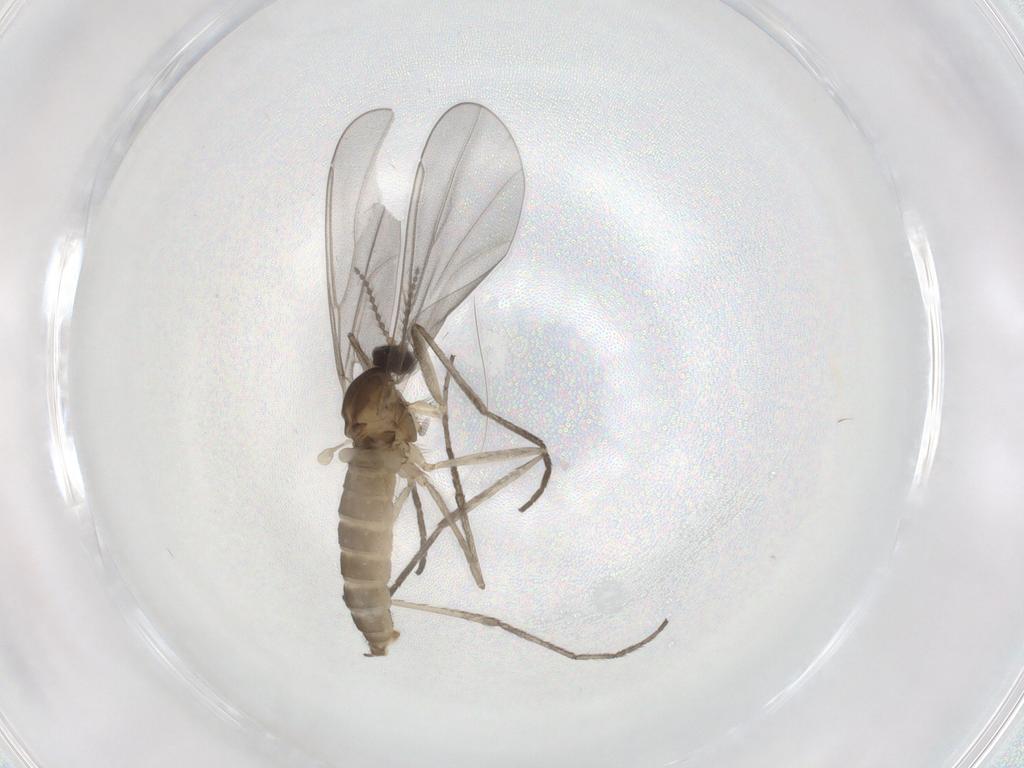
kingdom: Animalia
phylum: Arthropoda
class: Insecta
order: Diptera
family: Cecidomyiidae
